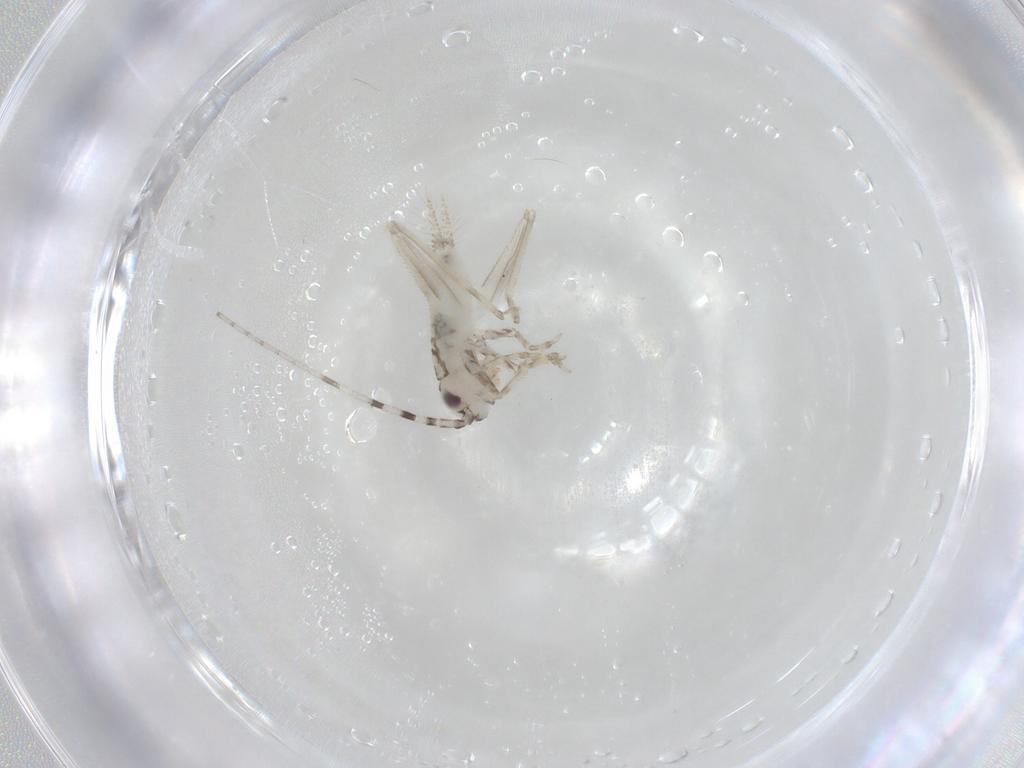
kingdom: Animalia
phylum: Arthropoda
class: Insecta
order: Orthoptera
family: Trigonidiidae
